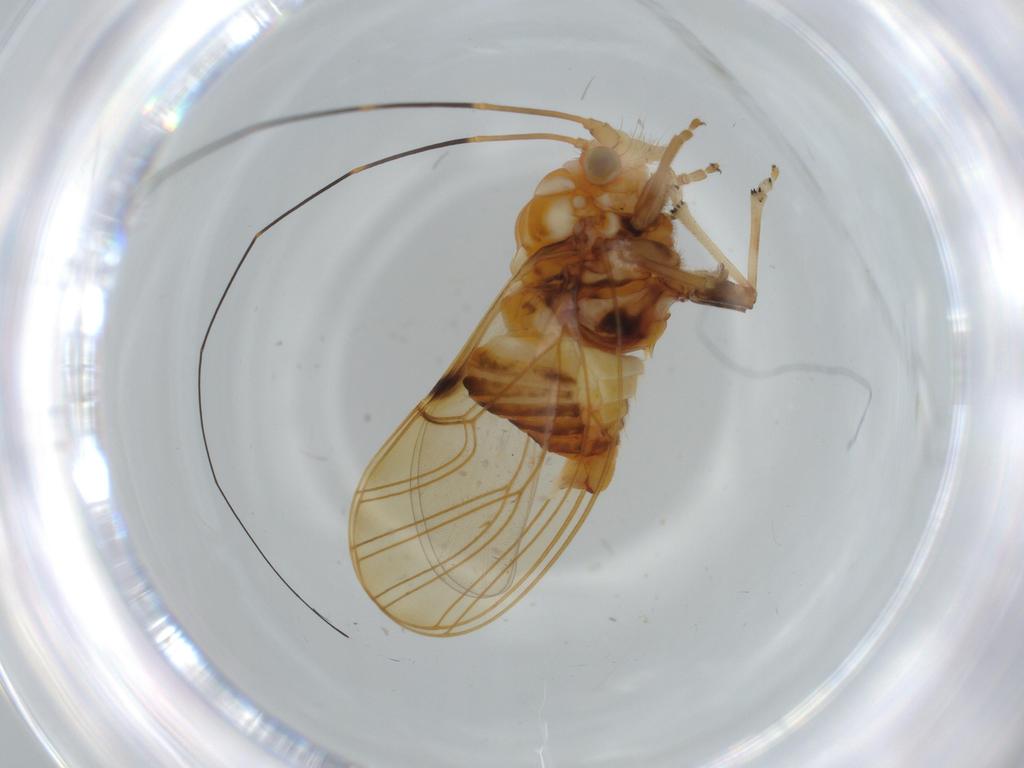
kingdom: Animalia
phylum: Arthropoda
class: Insecta
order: Hemiptera
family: Psyllidae
